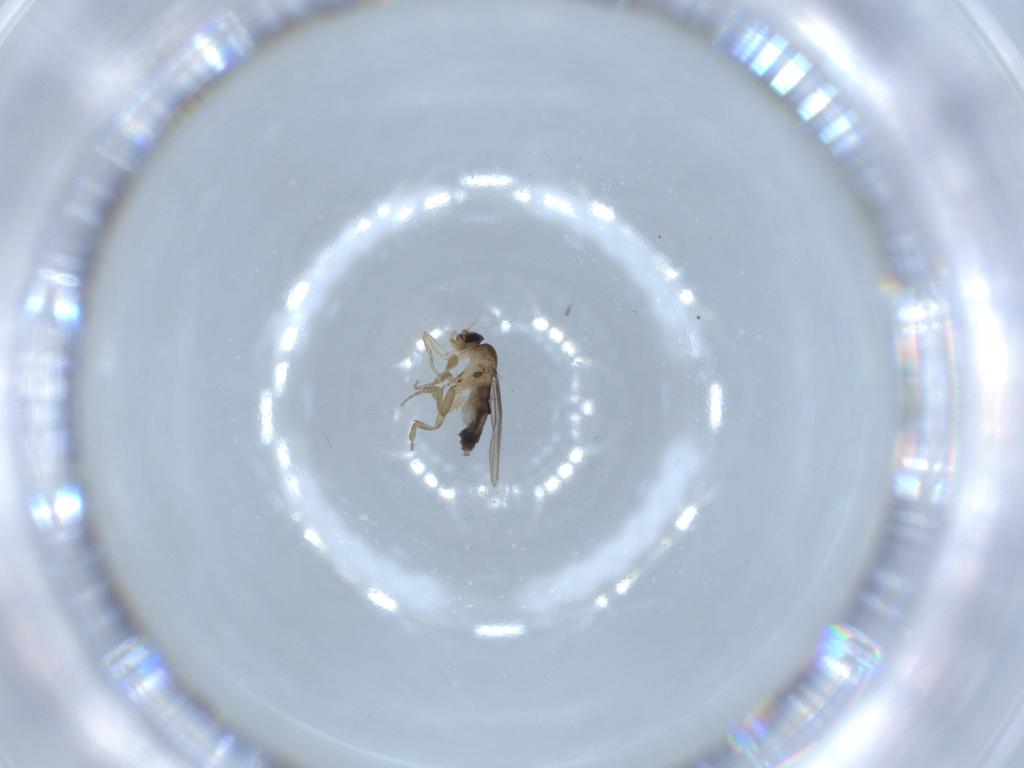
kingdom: Animalia
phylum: Arthropoda
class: Insecta
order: Diptera
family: Phoridae
